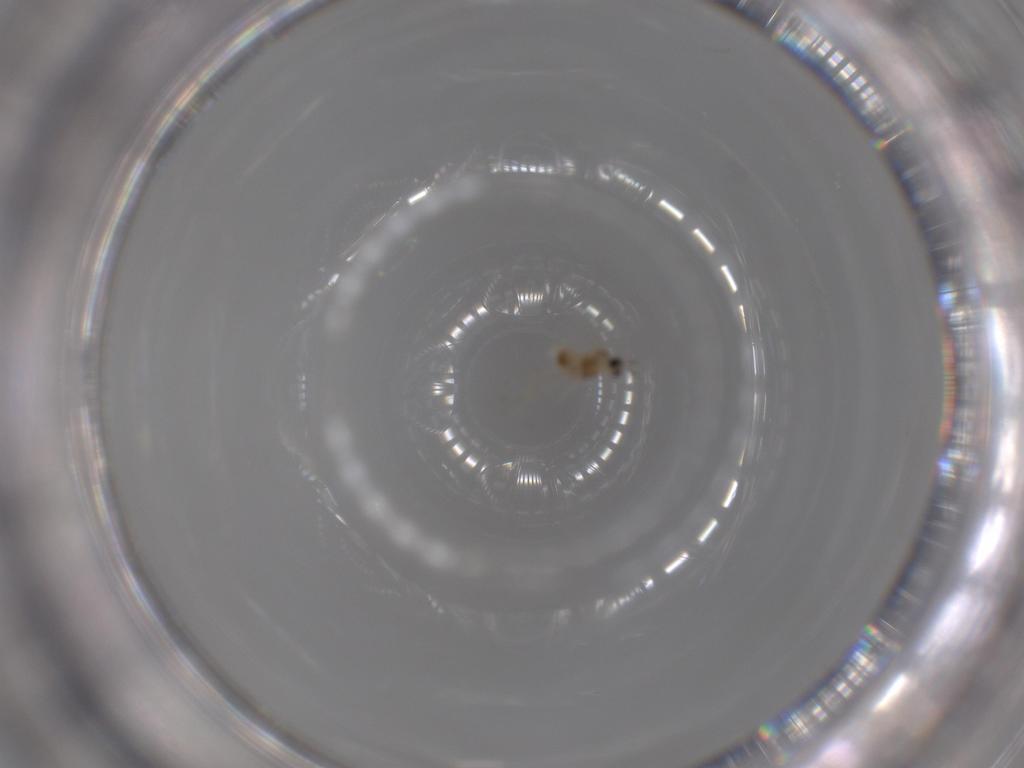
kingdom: Animalia
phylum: Arthropoda
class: Insecta
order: Diptera
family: Cecidomyiidae
